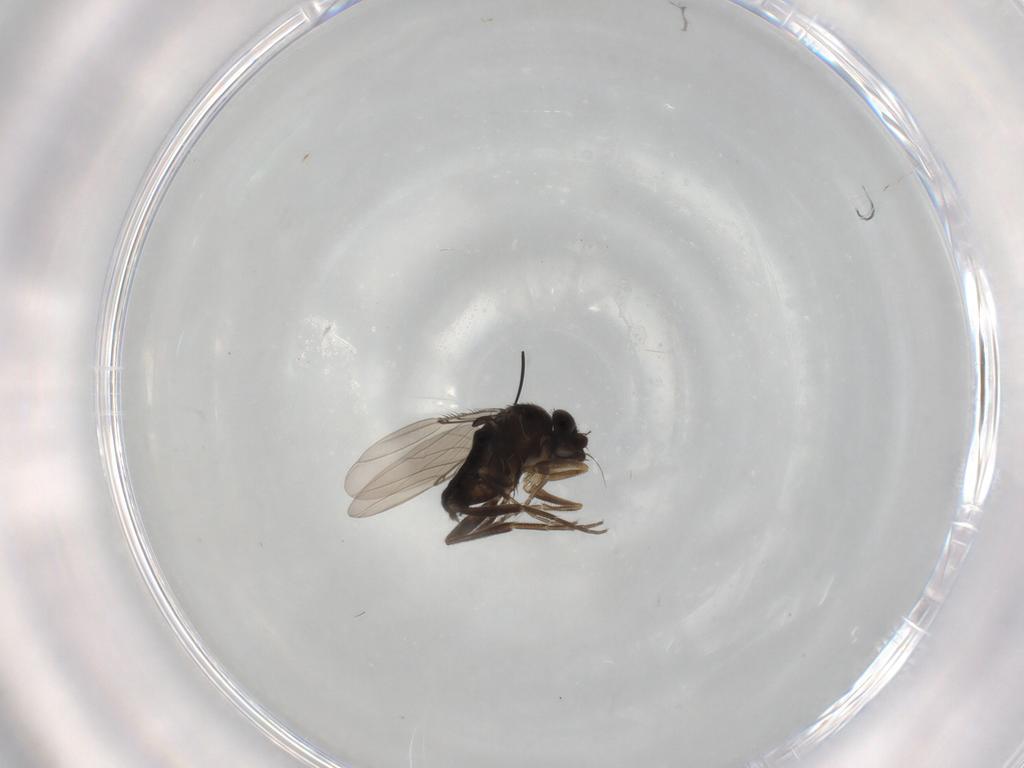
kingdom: Animalia
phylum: Arthropoda
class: Insecta
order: Diptera
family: Phoridae
